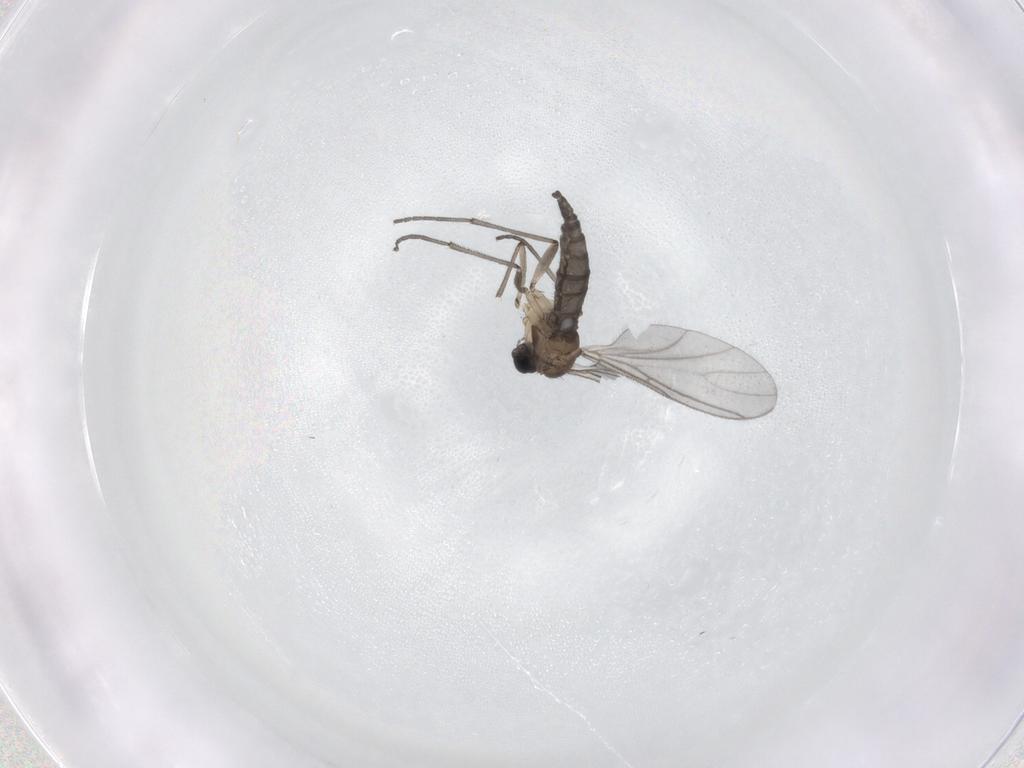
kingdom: Animalia
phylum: Arthropoda
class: Insecta
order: Diptera
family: Sciaridae
